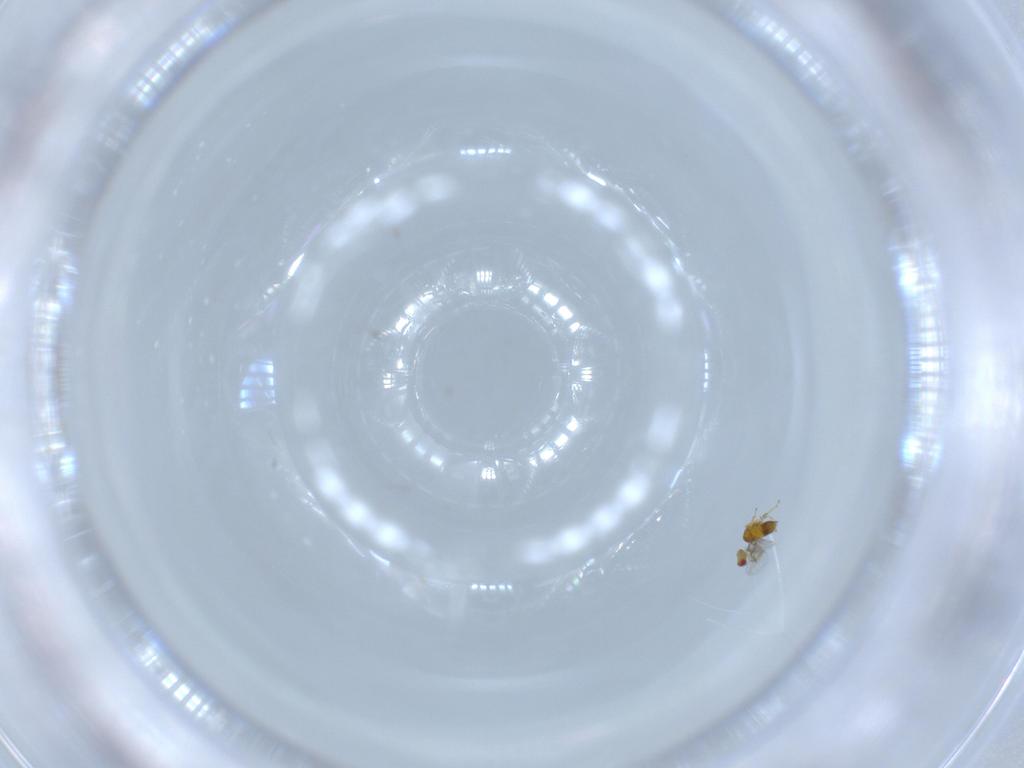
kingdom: Animalia
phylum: Arthropoda
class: Insecta
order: Hymenoptera
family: Trichogrammatidae
